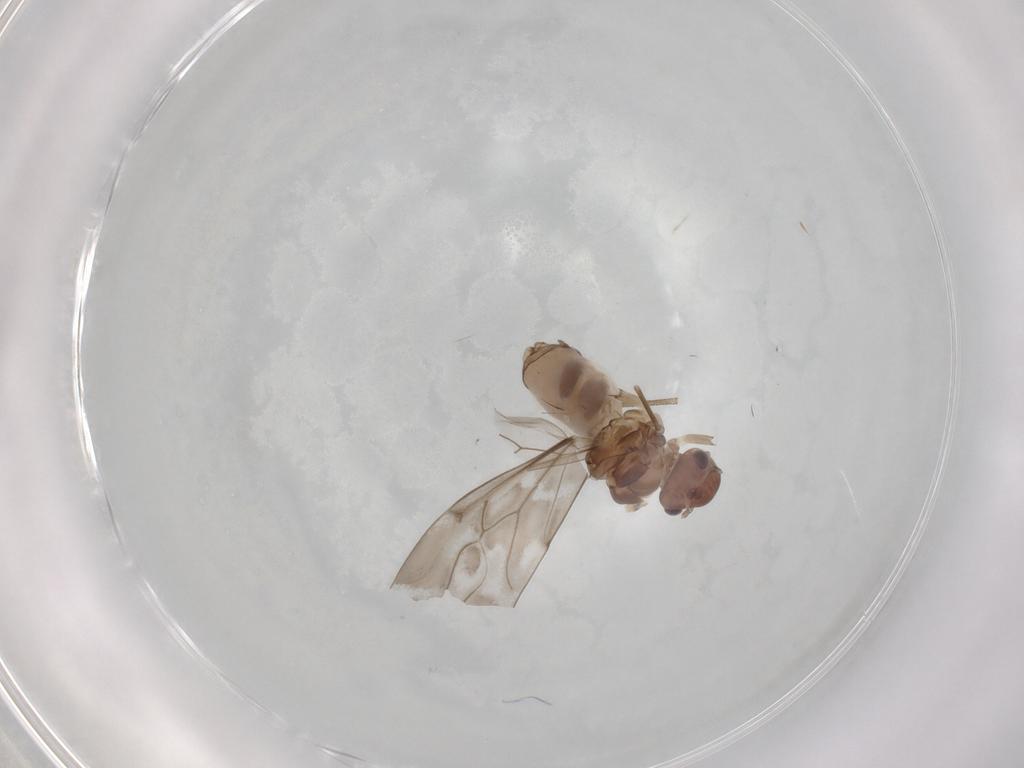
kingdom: Animalia
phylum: Arthropoda
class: Insecta
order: Psocodea
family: Peripsocidae
